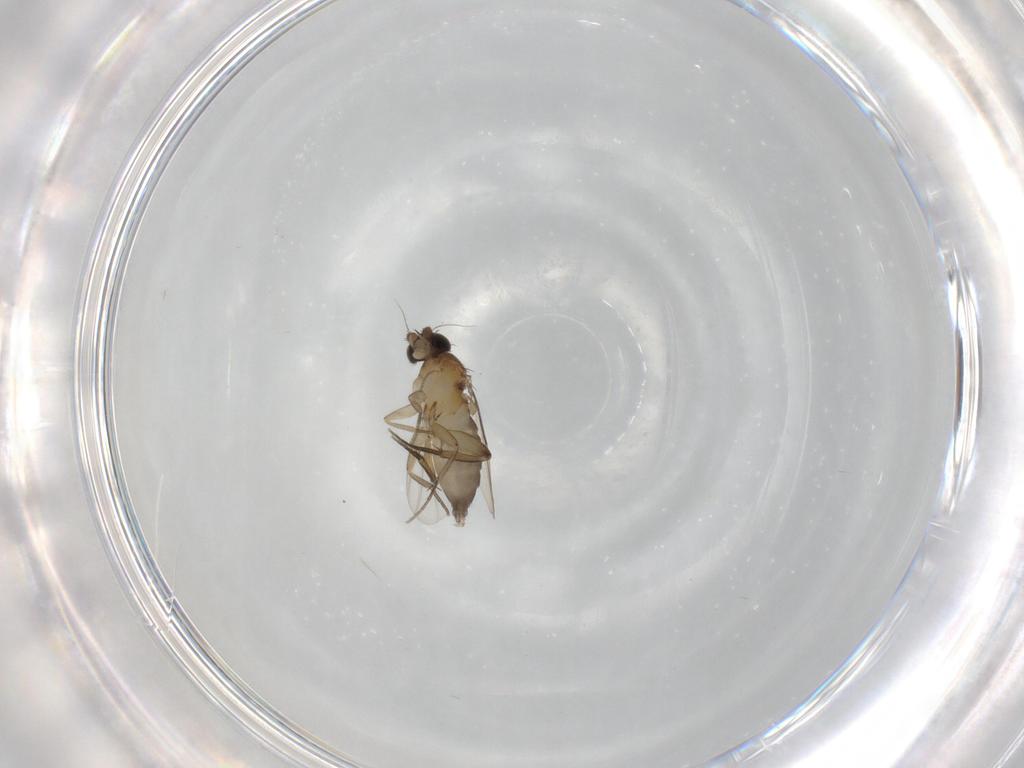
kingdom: Animalia
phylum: Arthropoda
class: Insecta
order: Diptera
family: Phoridae
